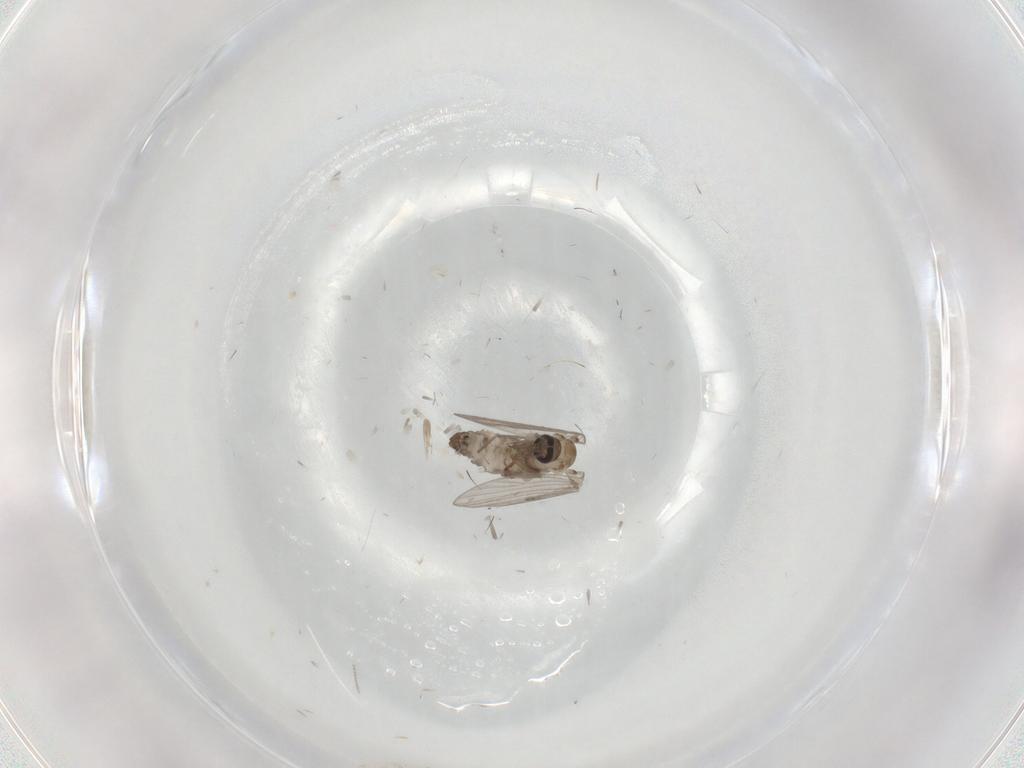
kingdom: Animalia
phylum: Arthropoda
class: Insecta
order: Diptera
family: Psychodidae
